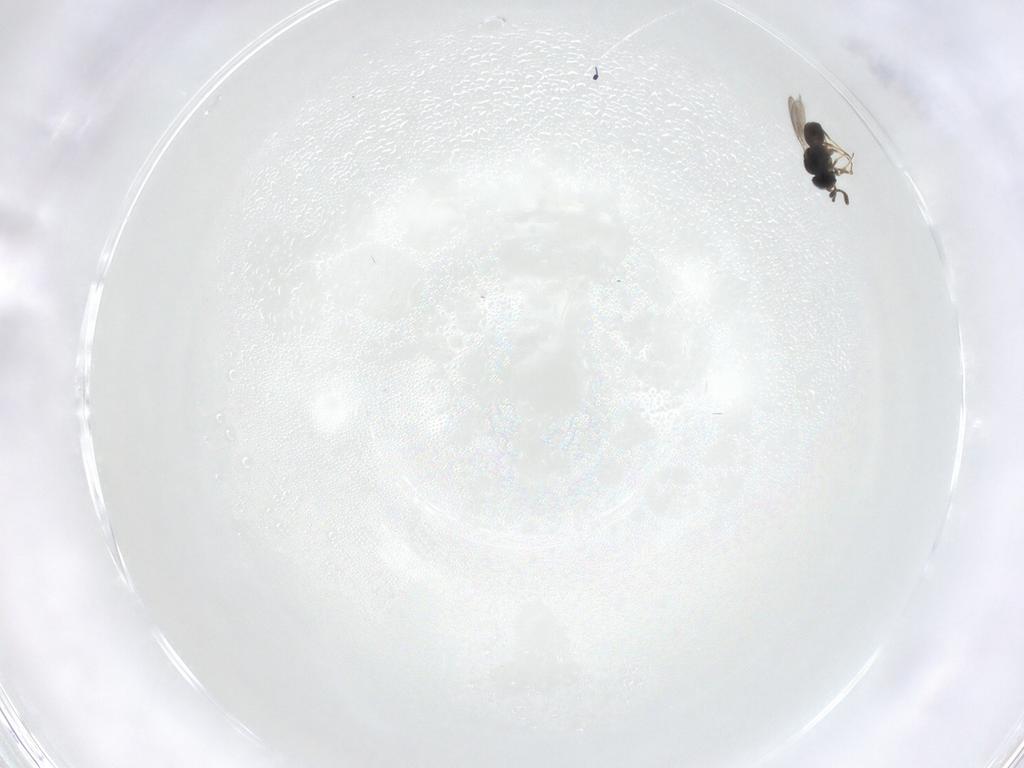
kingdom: Animalia
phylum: Arthropoda
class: Insecta
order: Hymenoptera
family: Scelionidae
